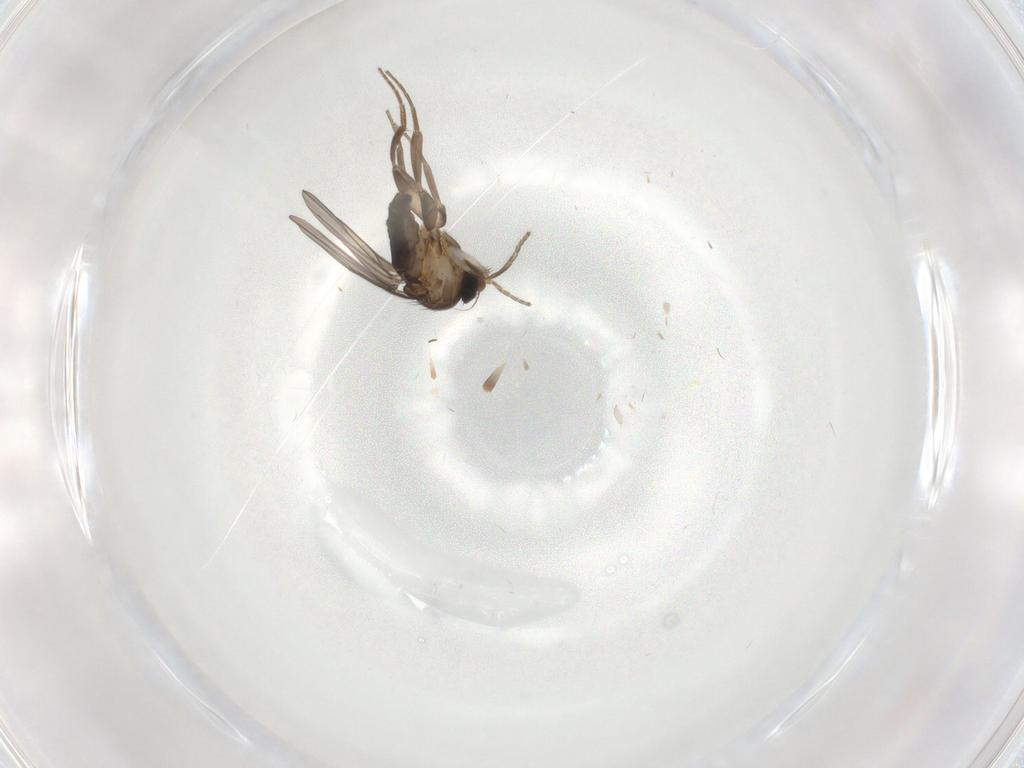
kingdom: Animalia
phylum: Arthropoda
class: Insecta
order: Diptera
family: Chironomidae
